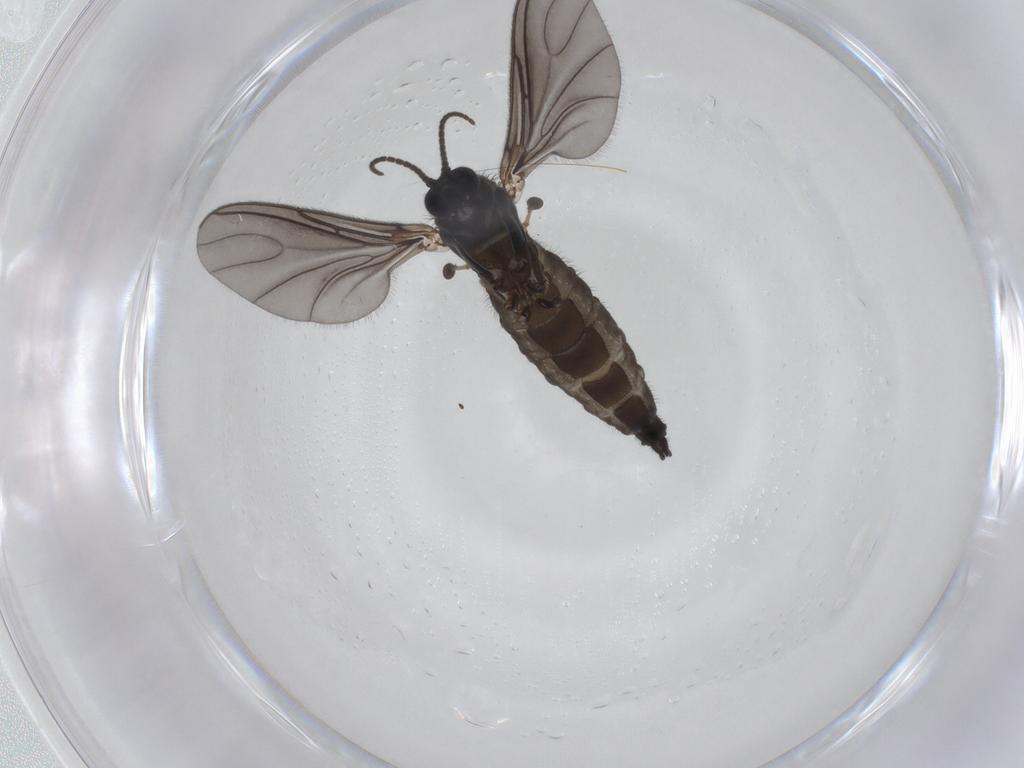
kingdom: Animalia
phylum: Arthropoda
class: Insecta
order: Diptera
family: Sciaridae
